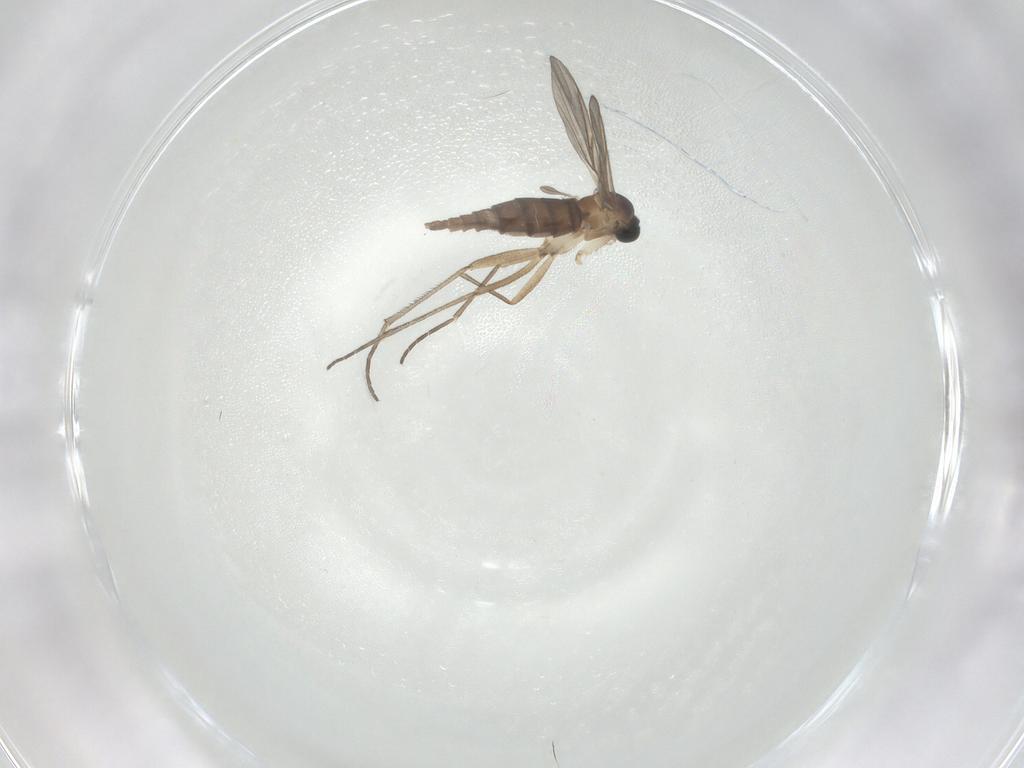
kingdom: Animalia
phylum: Arthropoda
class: Insecta
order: Diptera
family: Sciaridae
